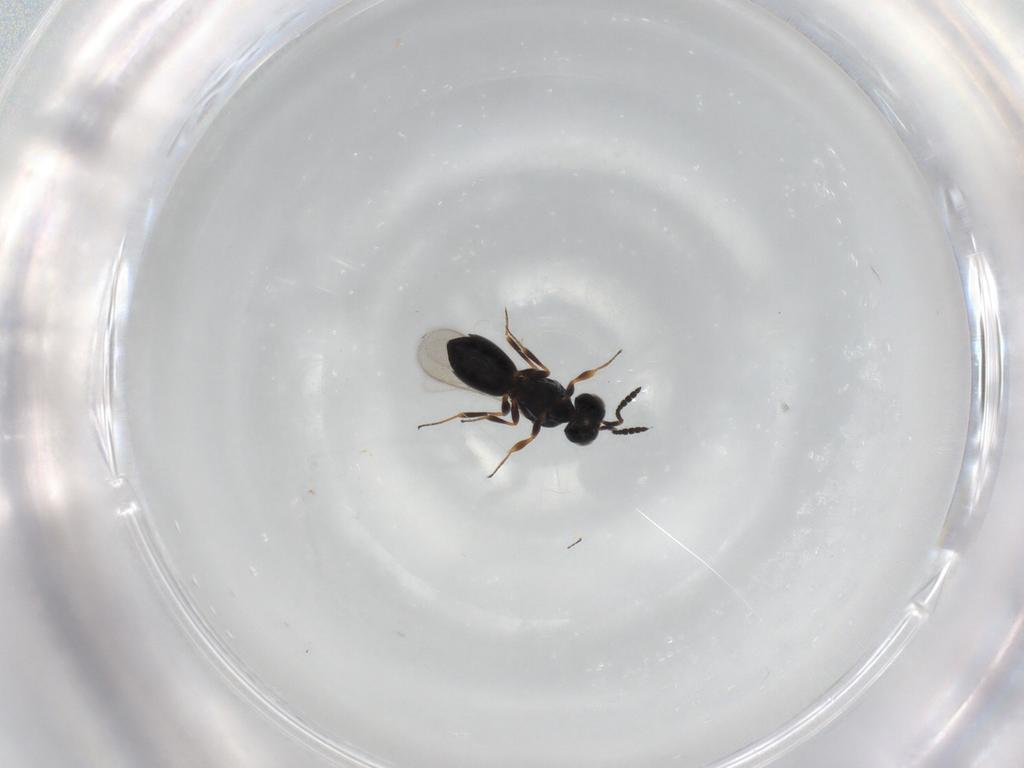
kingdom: Animalia
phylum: Arthropoda
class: Insecta
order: Hymenoptera
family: Scelionidae
